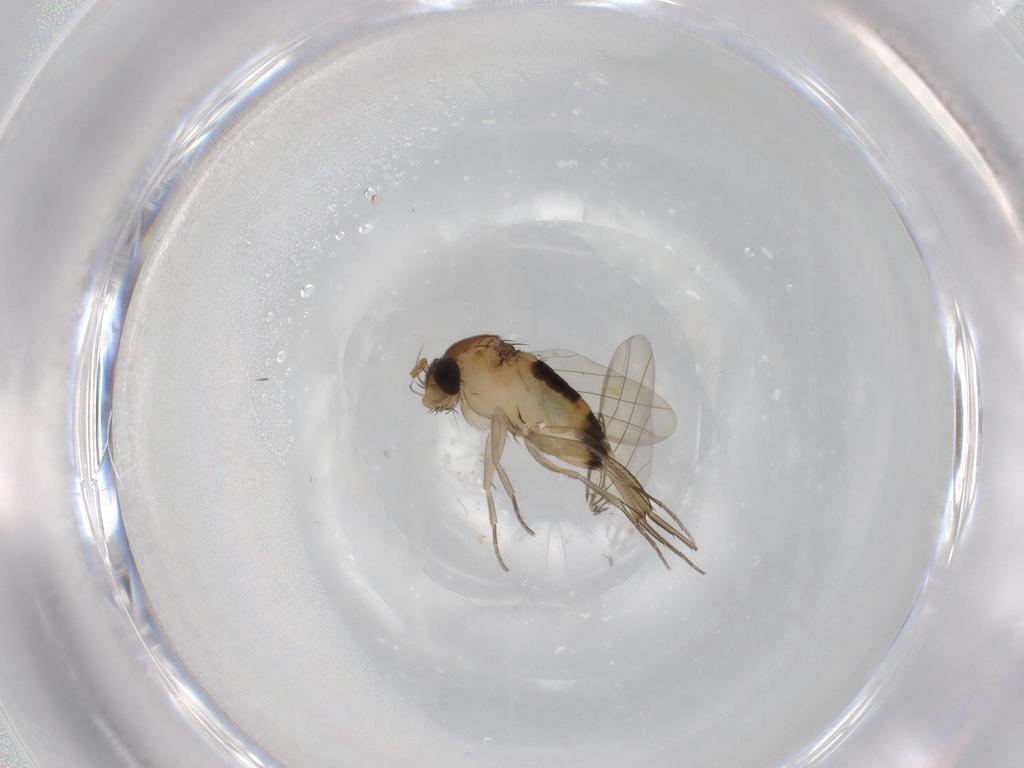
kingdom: Animalia
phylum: Arthropoda
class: Insecta
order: Diptera
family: Phoridae
